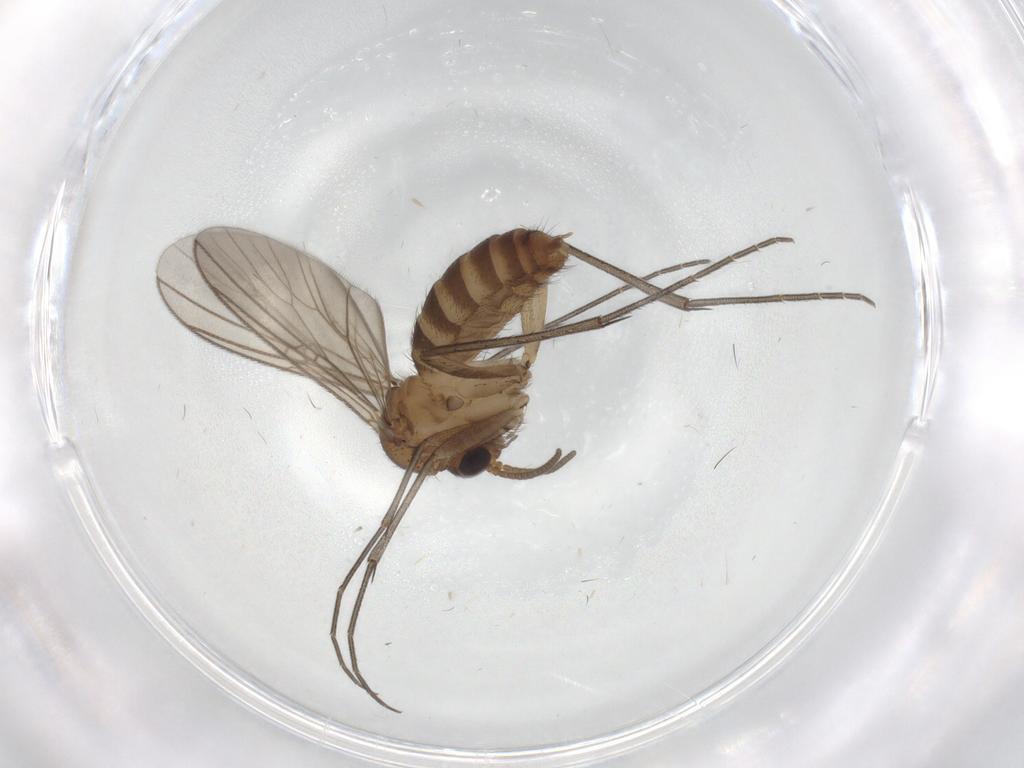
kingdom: Animalia
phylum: Arthropoda
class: Insecta
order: Diptera
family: Mycetophilidae
